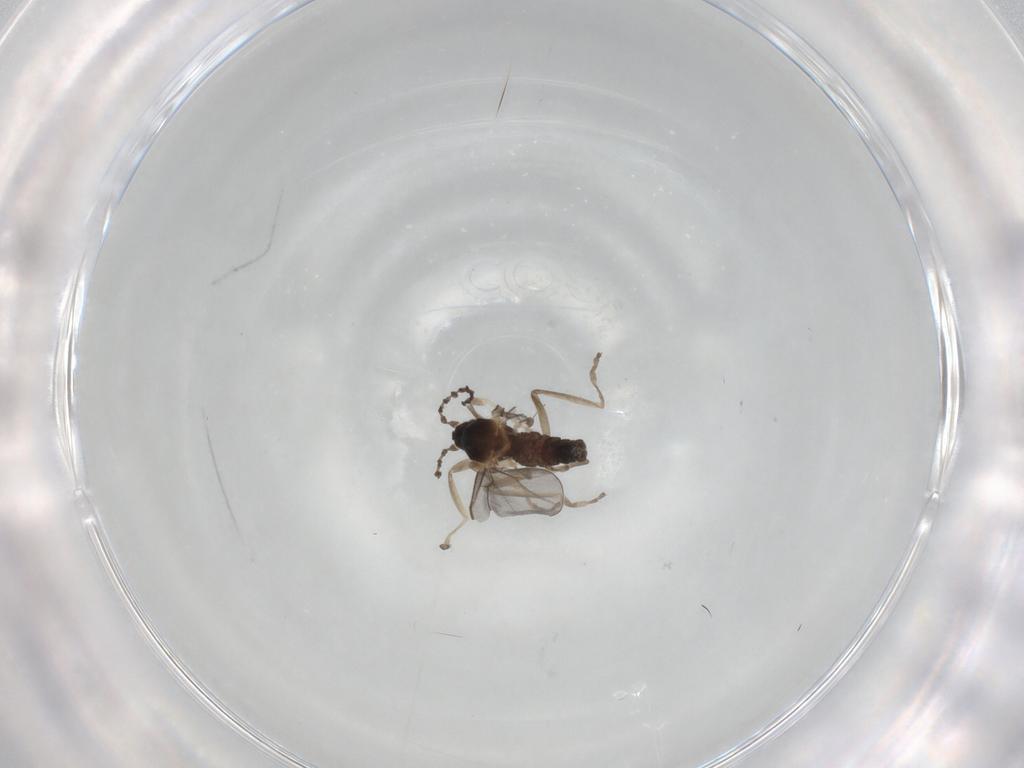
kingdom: Animalia
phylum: Arthropoda
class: Insecta
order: Diptera
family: Cecidomyiidae
